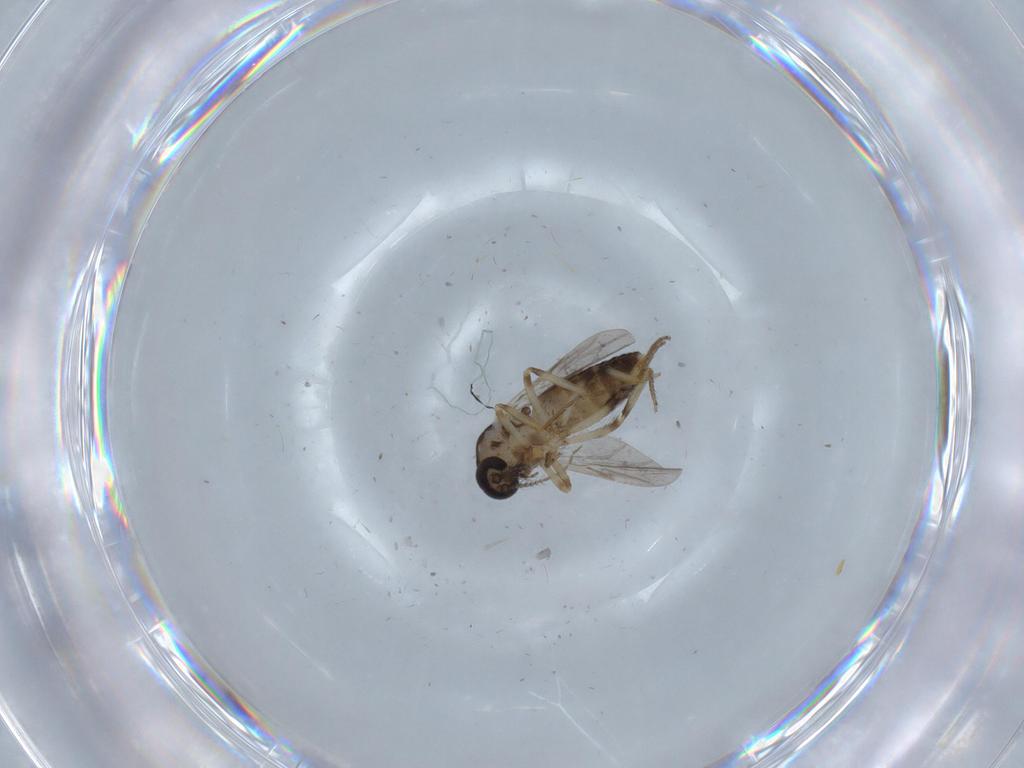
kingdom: Animalia
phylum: Arthropoda
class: Insecta
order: Diptera
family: Ceratopogonidae
